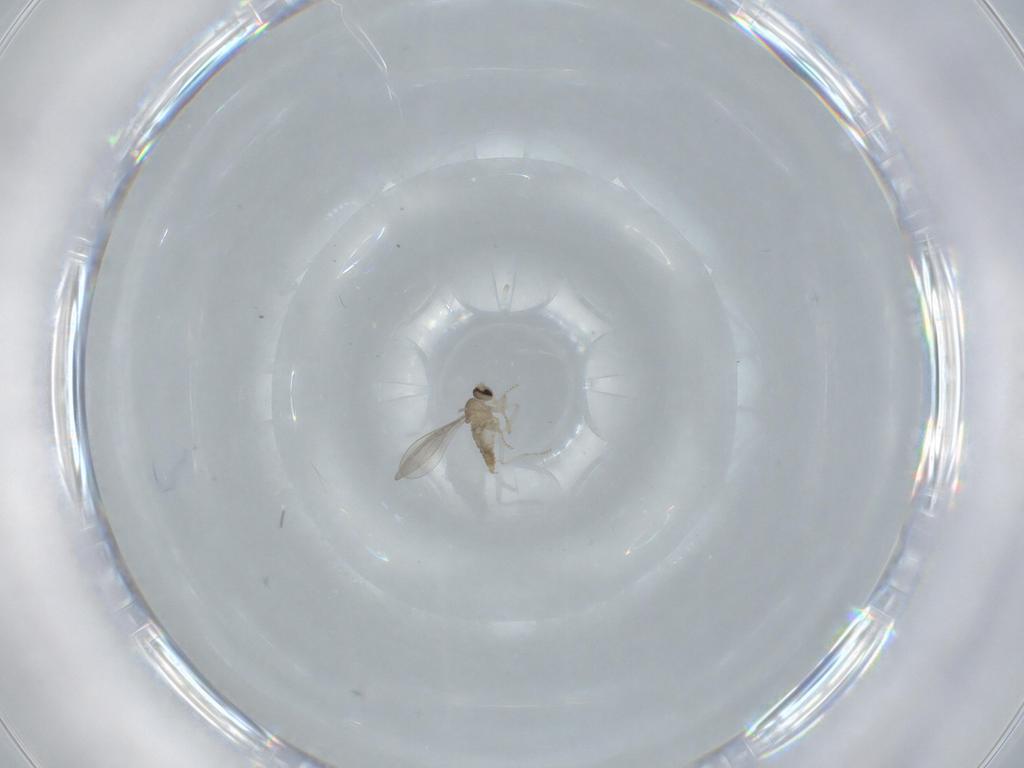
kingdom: Animalia
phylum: Arthropoda
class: Insecta
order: Diptera
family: Cecidomyiidae
